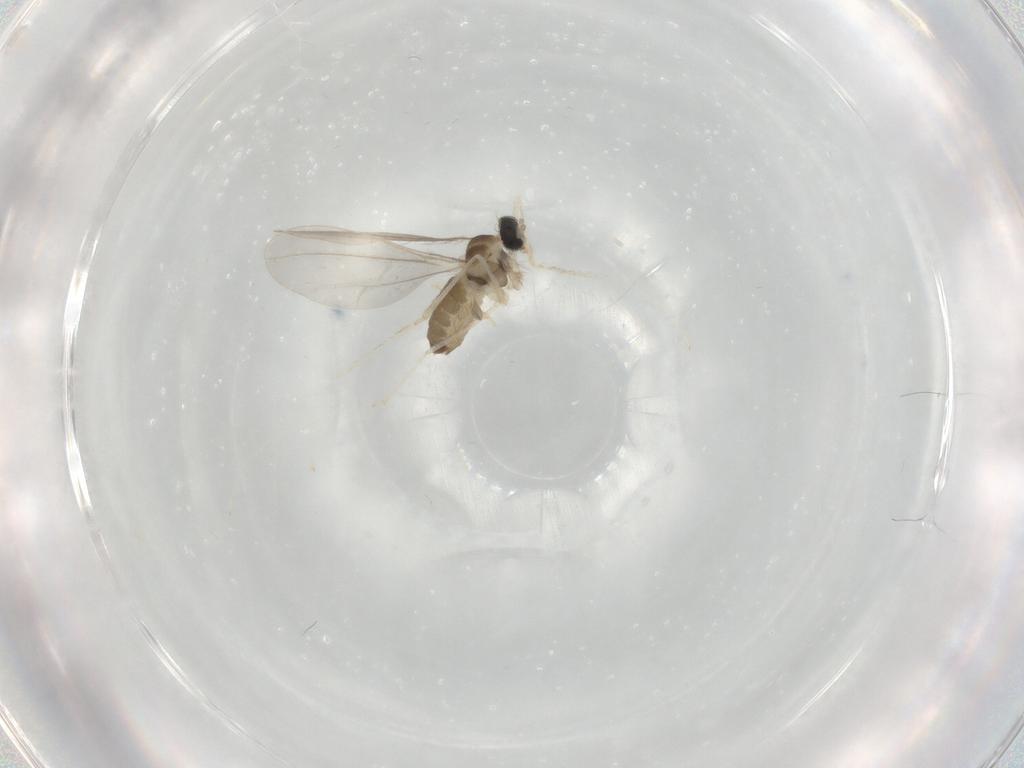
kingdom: Animalia
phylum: Arthropoda
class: Insecta
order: Diptera
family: Cecidomyiidae
